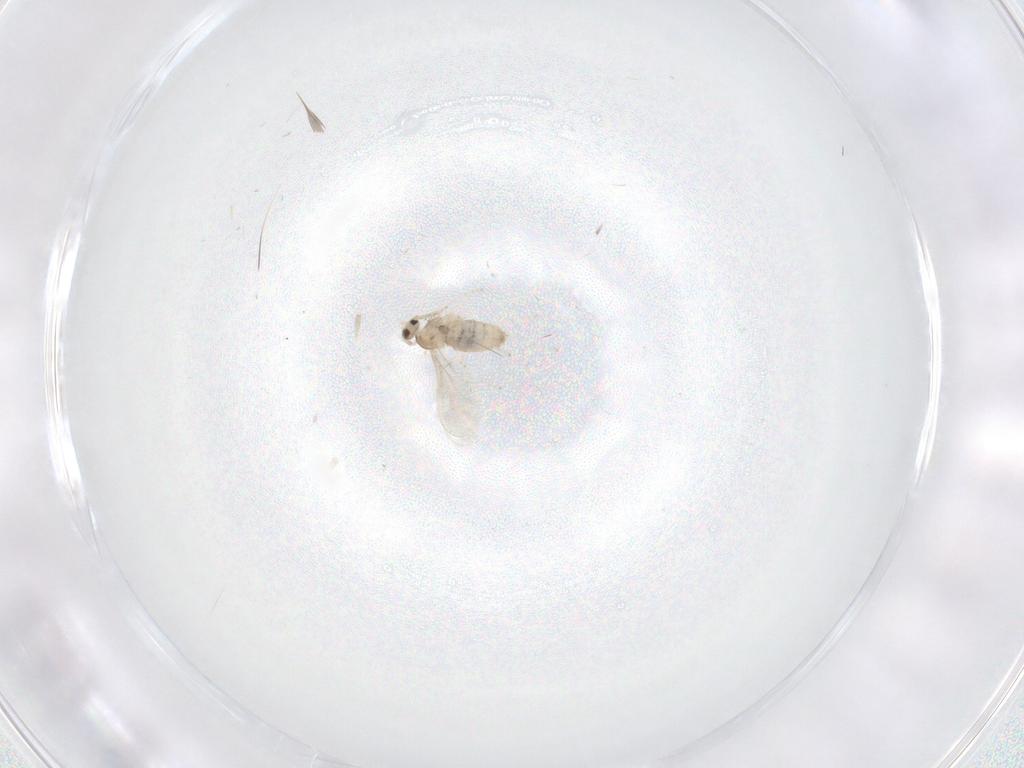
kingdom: Animalia
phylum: Arthropoda
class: Insecta
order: Diptera
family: Cecidomyiidae
